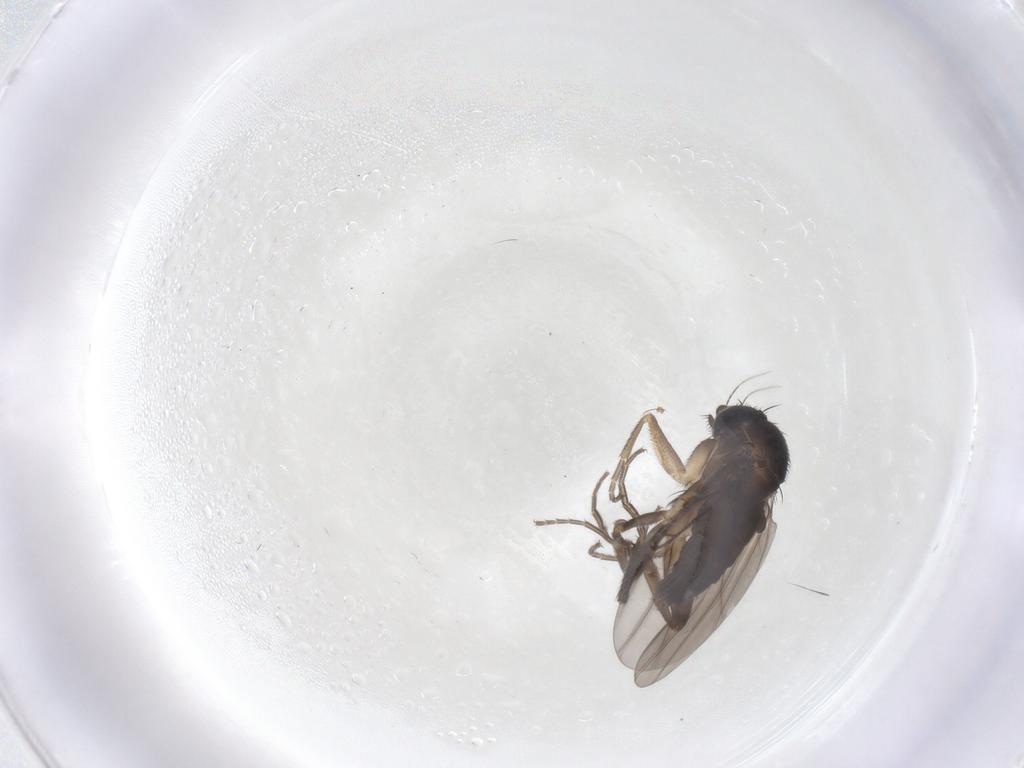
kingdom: Animalia
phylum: Arthropoda
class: Insecta
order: Diptera
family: Phoridae
